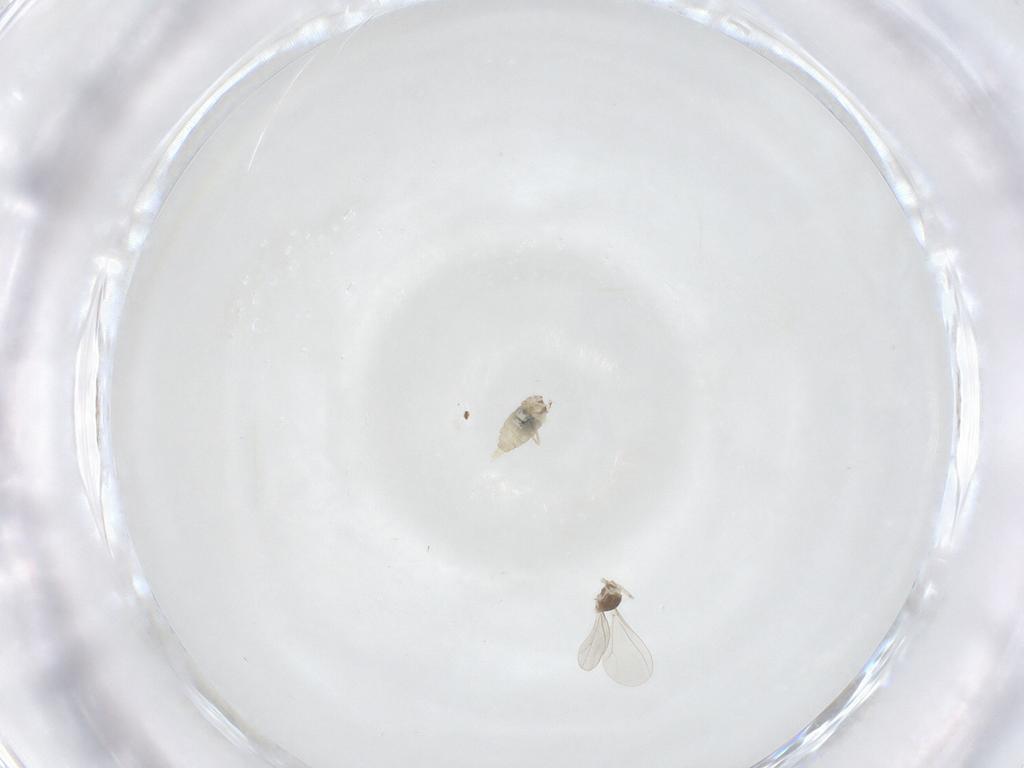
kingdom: Animalia
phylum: Arthropoda
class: Insecta
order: Diptera
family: Cecidomyiidae
